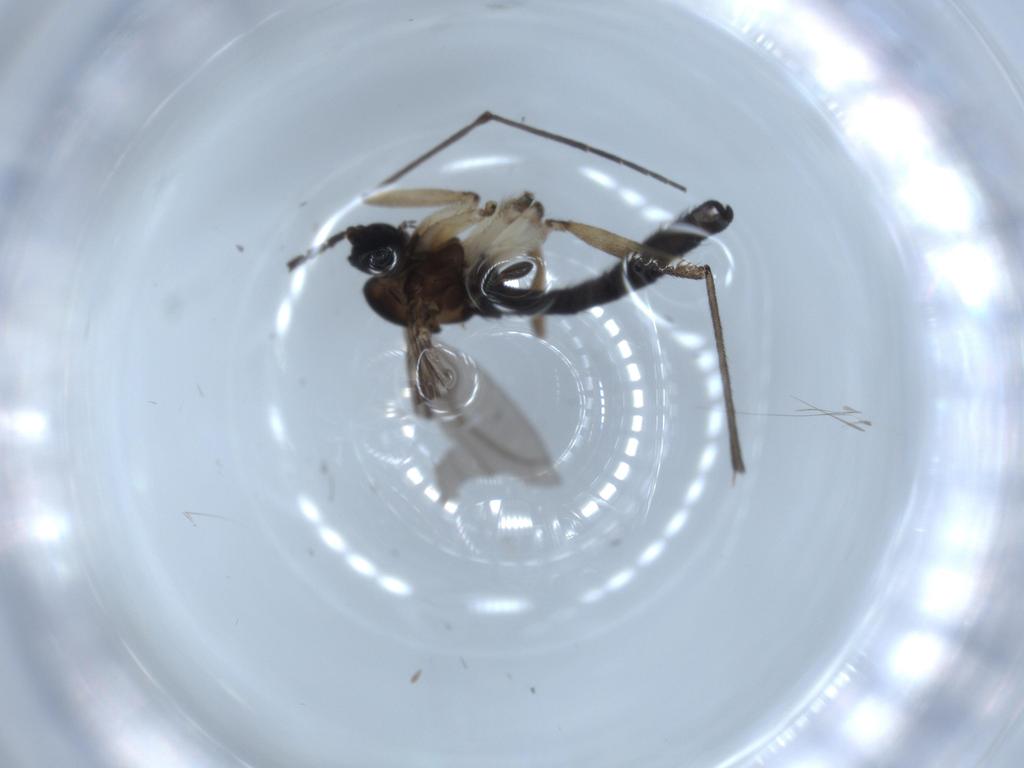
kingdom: Animalia
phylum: Arthropoda
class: Insecta
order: Diptera
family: Sciaridae
